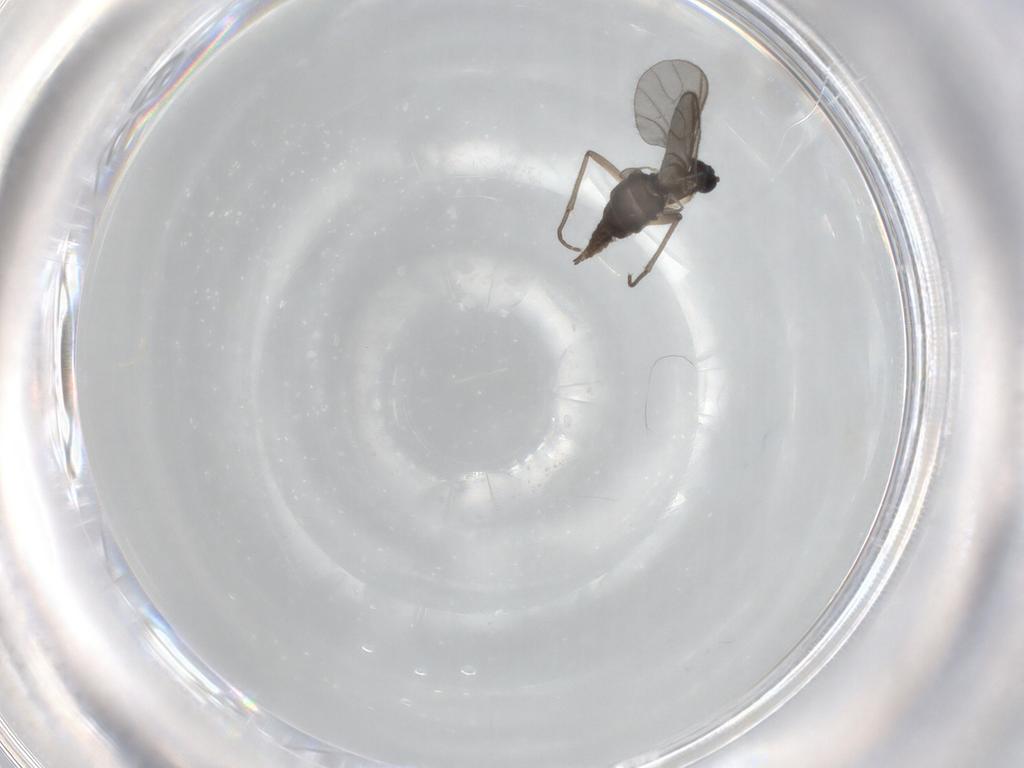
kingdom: Animalia
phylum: Arthropoda
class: Insecta
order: Diptera
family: Sciaridae
